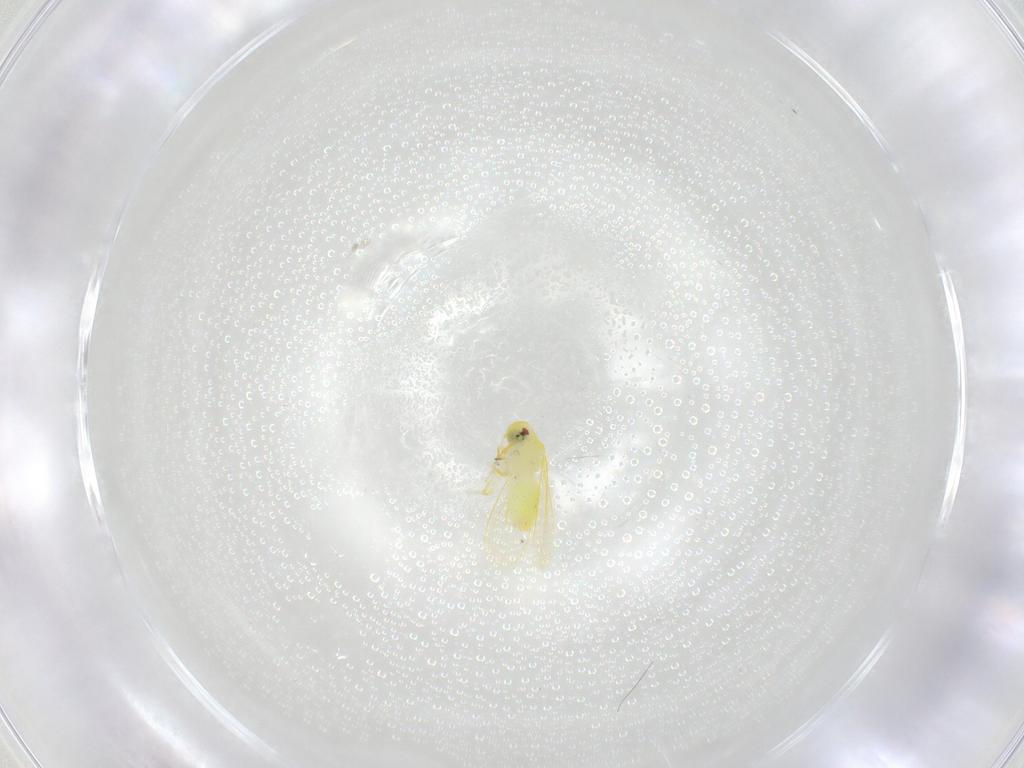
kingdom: Animalia
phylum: Arthropoda
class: Insecta
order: Hemiptera
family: Aleyrodidae
